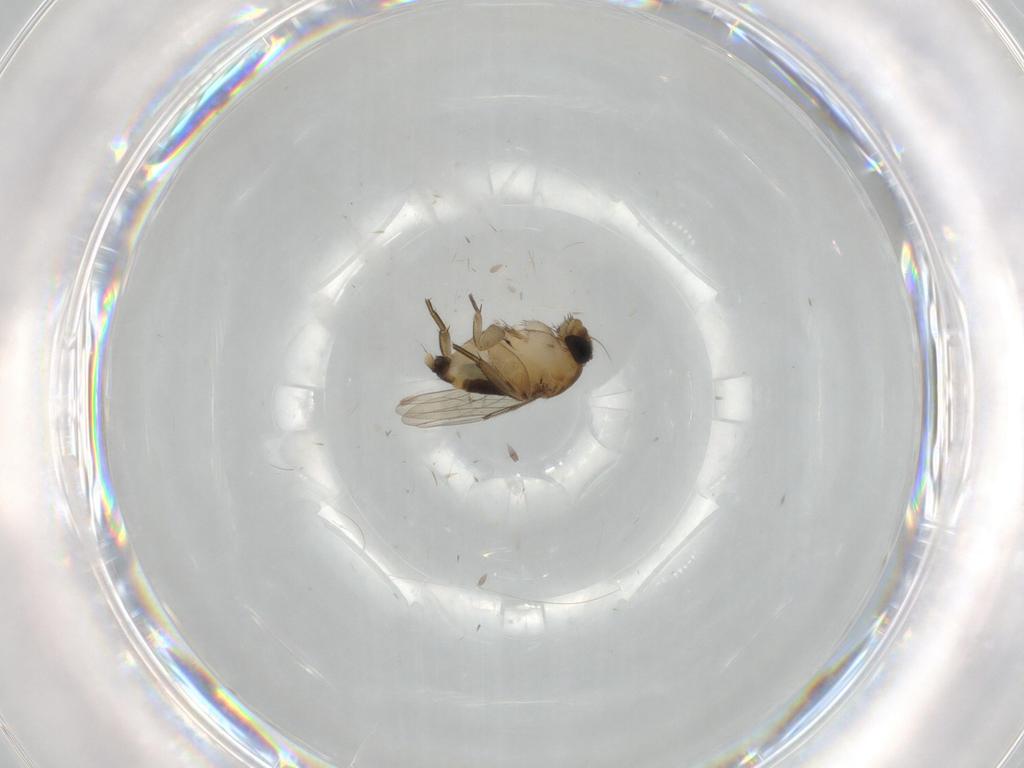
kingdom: Animalia
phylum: Arthropoda
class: Insecta
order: Diptera
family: Phoridae
